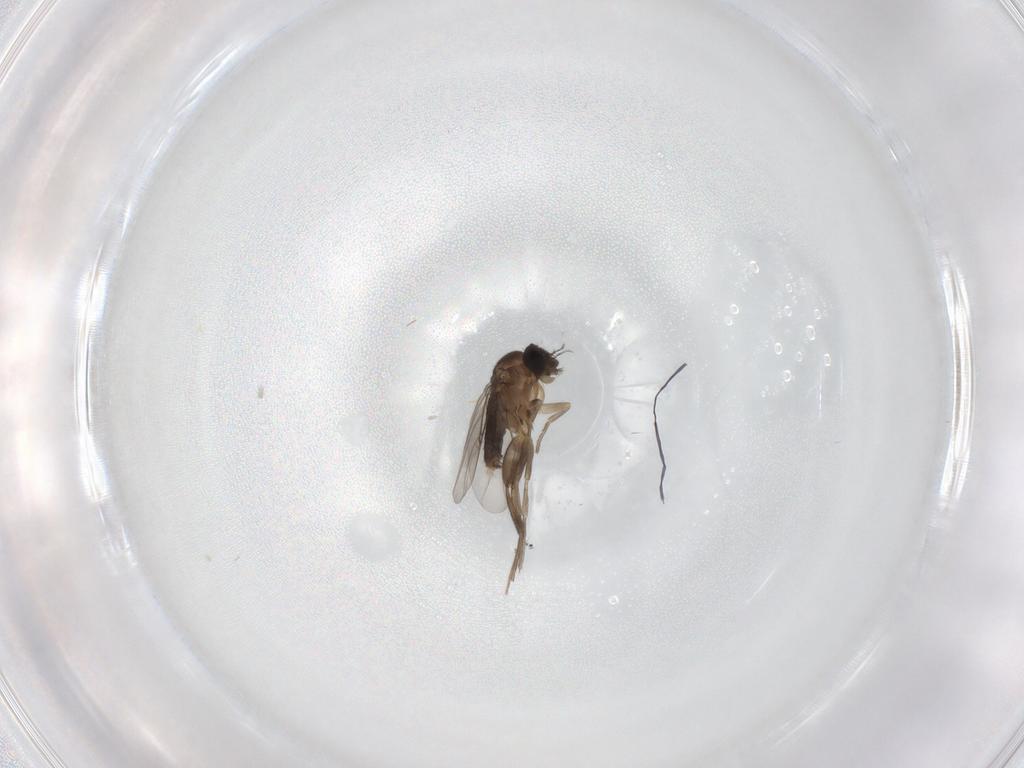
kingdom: Animalia
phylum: Arthropoda
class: Insecta
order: Diptera
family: Phoridae
